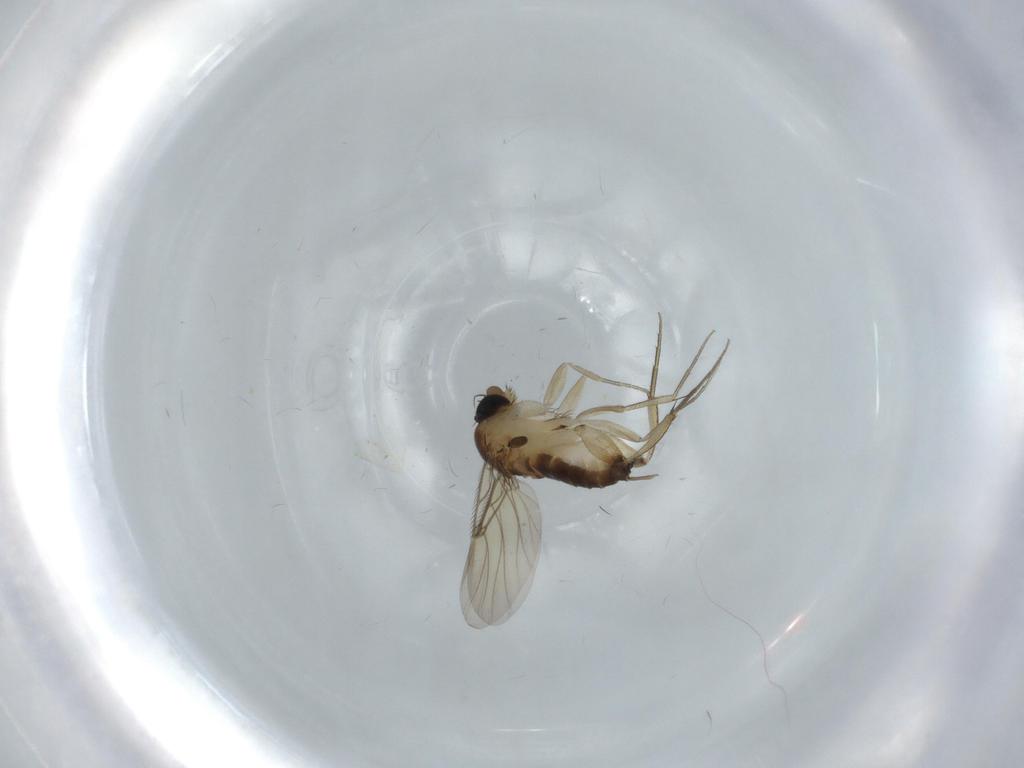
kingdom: Animalia
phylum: Arthropoda
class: Insecta
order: Diptera
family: Phoridae
